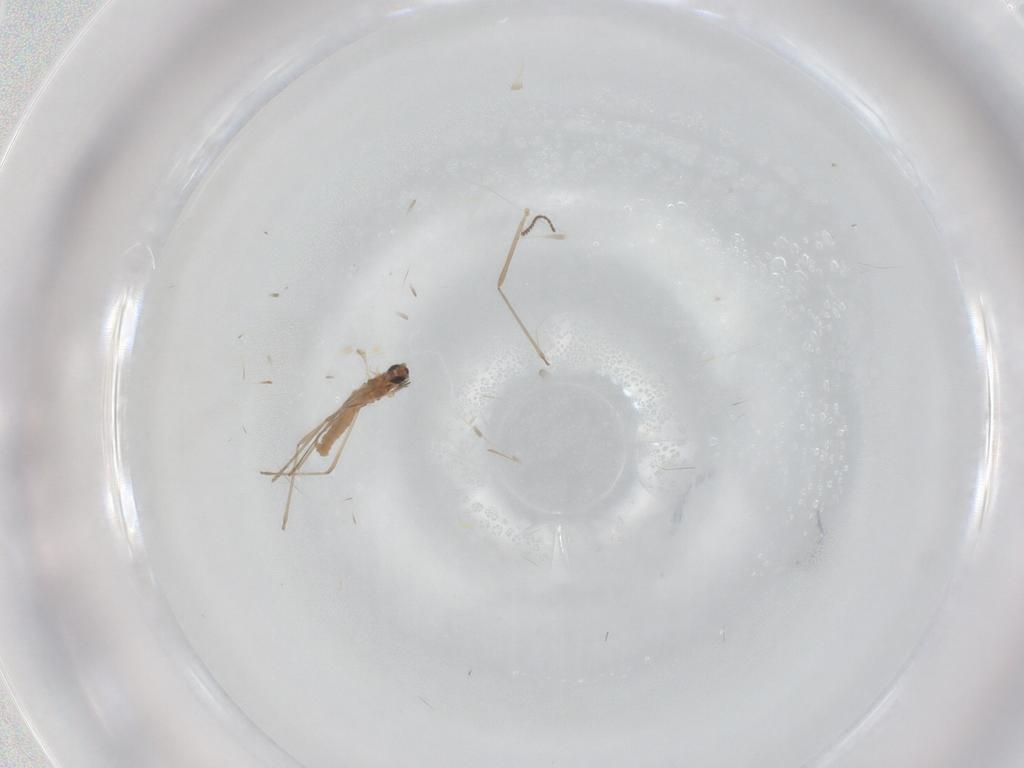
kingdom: Animalia
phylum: Arthropoda
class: Insecta
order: Diptera
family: Cecidomyiidae
